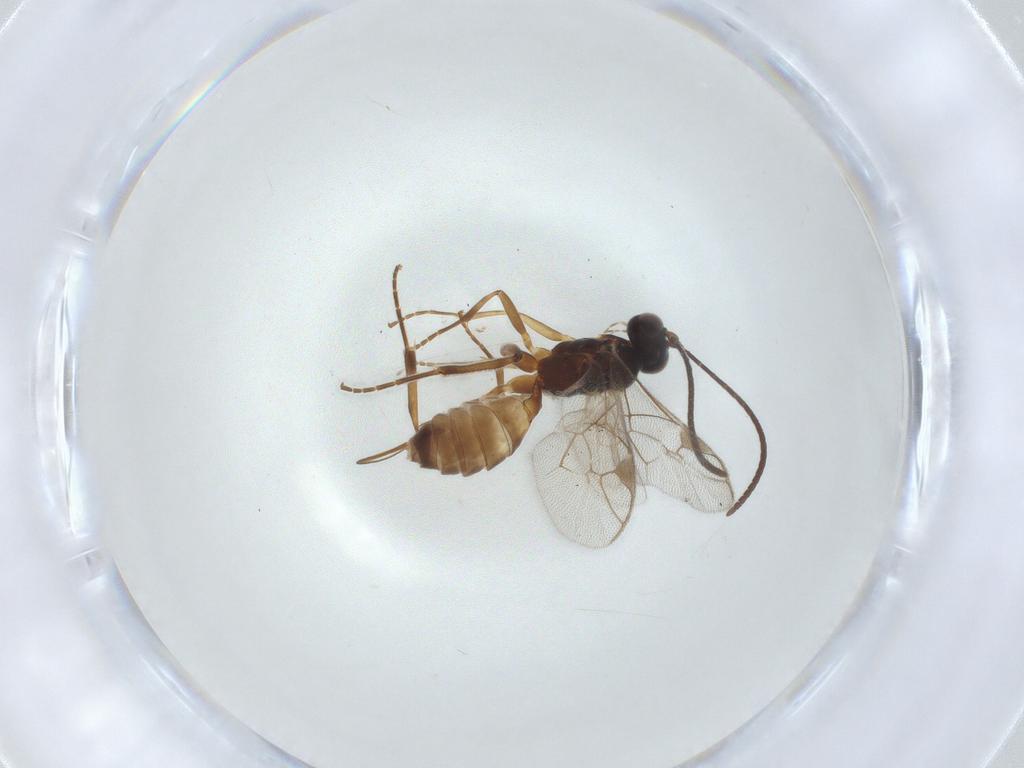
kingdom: Animalia
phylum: Arthropoda
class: Insecta
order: Hymenoptera
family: Ichneumonidae
